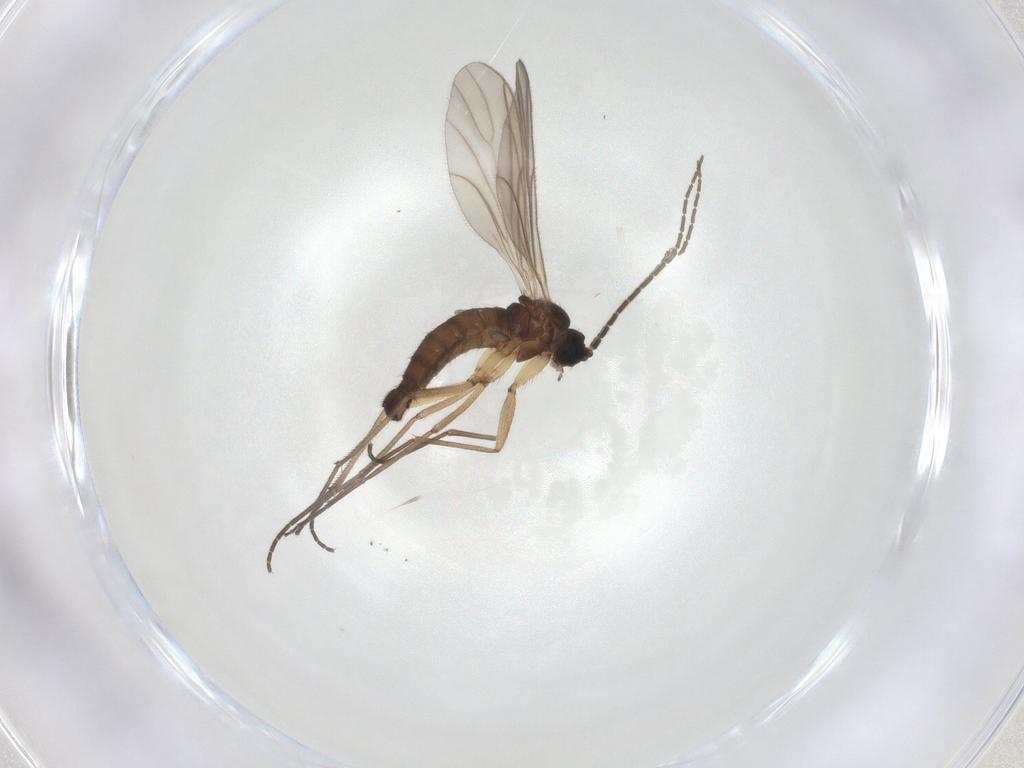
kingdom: Animalia
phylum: Arthropoda
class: Insecta
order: Diptera
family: Sciaridae
